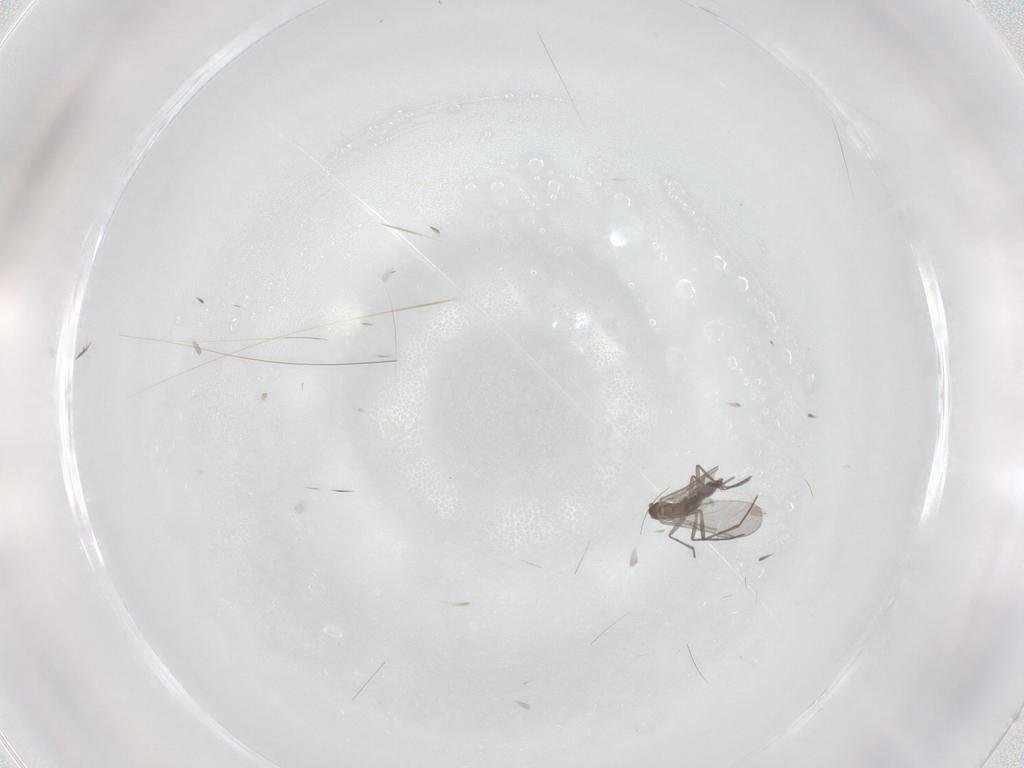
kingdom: Animalia
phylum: Arthropoda
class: Insecta
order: Diptera
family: Sciaridae
